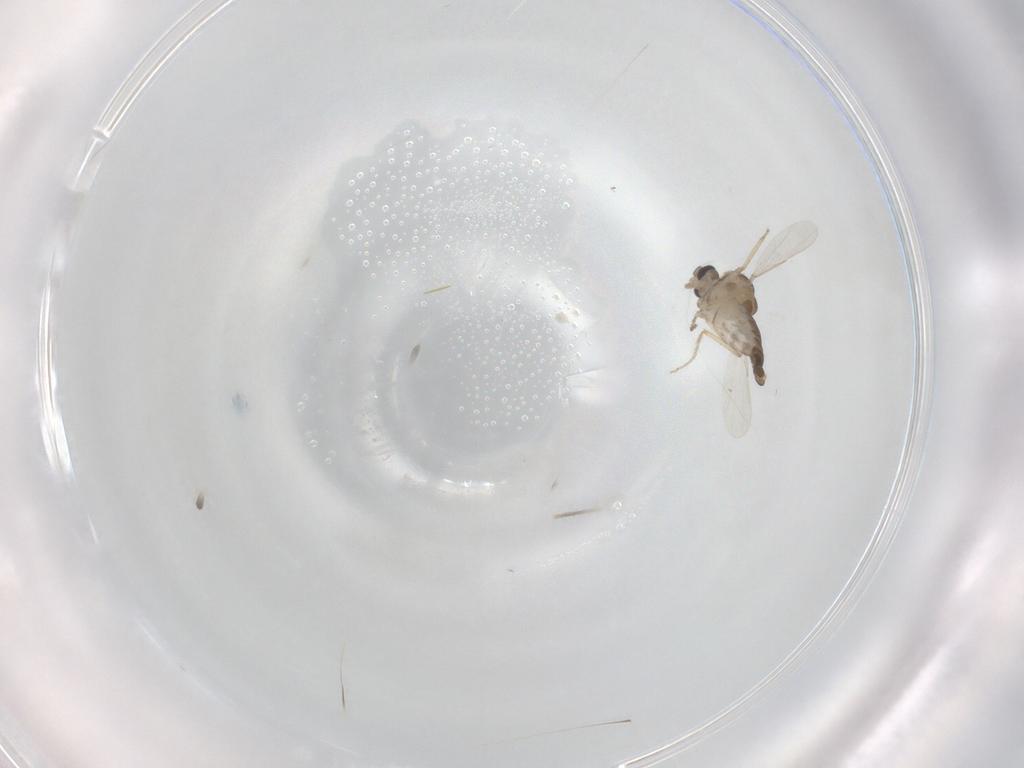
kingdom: Animalia
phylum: Arthropoda
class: Insecta
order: Diptera
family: Ceratopogonidae
